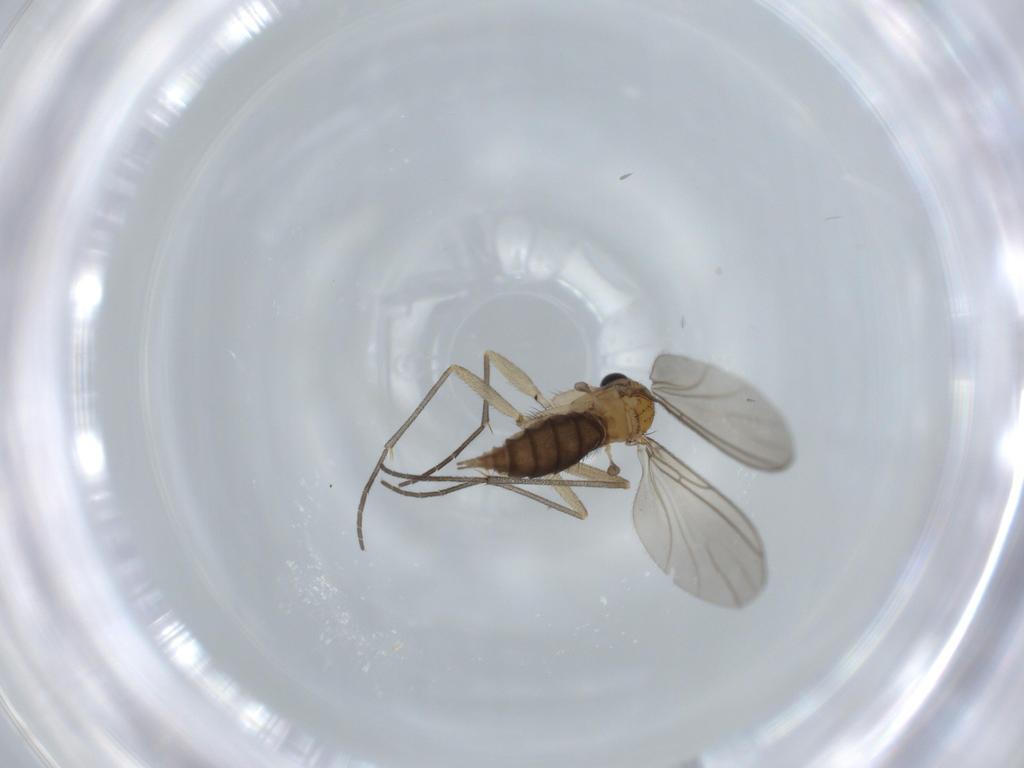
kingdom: Animalia
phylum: Arthropoda
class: Insecta
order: Diptera
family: Sciaridae
